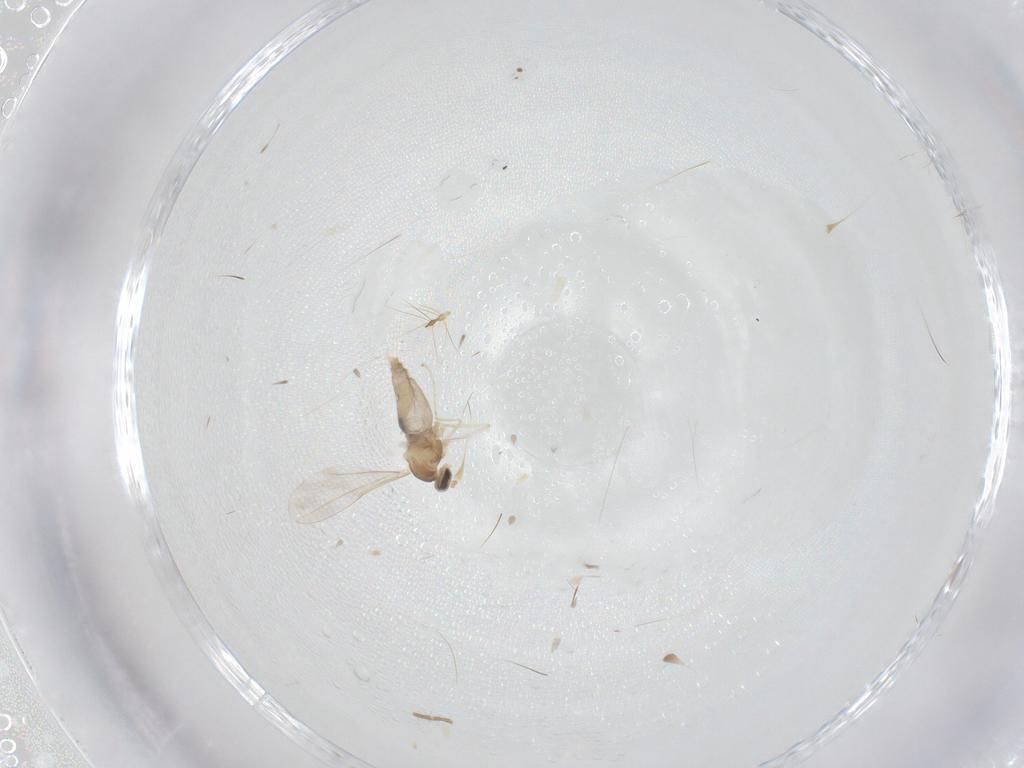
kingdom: Animalia
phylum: Arthropoda
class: Insecta
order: Diptera
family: Cecidomyiidae
